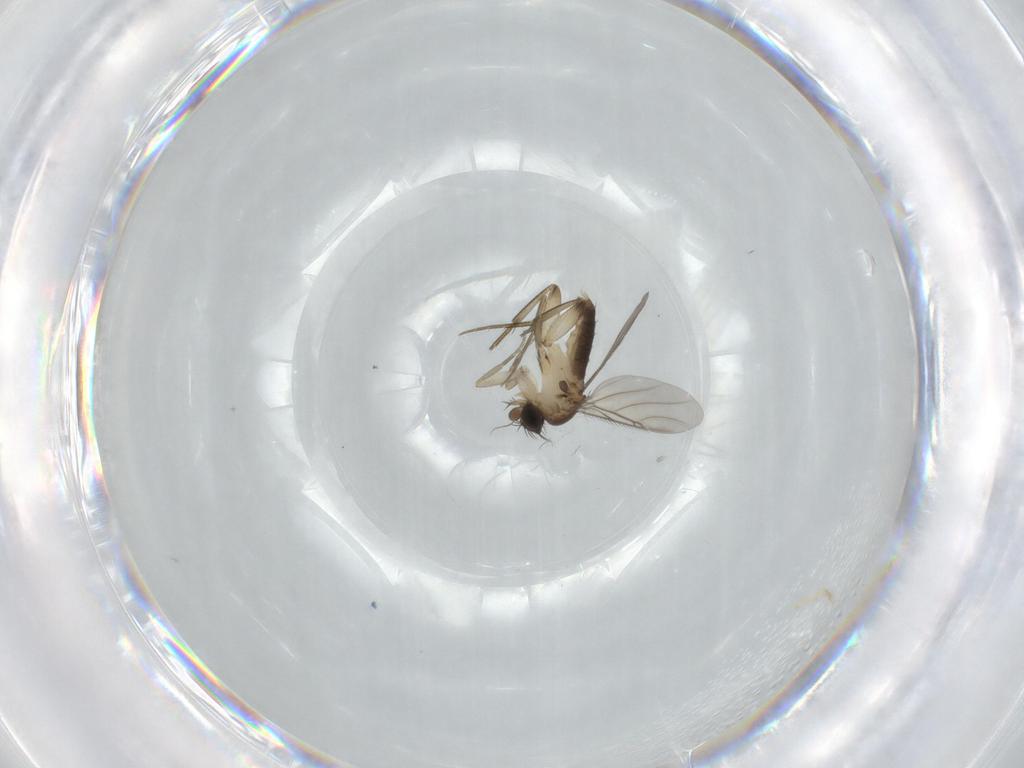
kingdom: Animalia
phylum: Arthropoda
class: Insecta
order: Diptera
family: Phoridae
